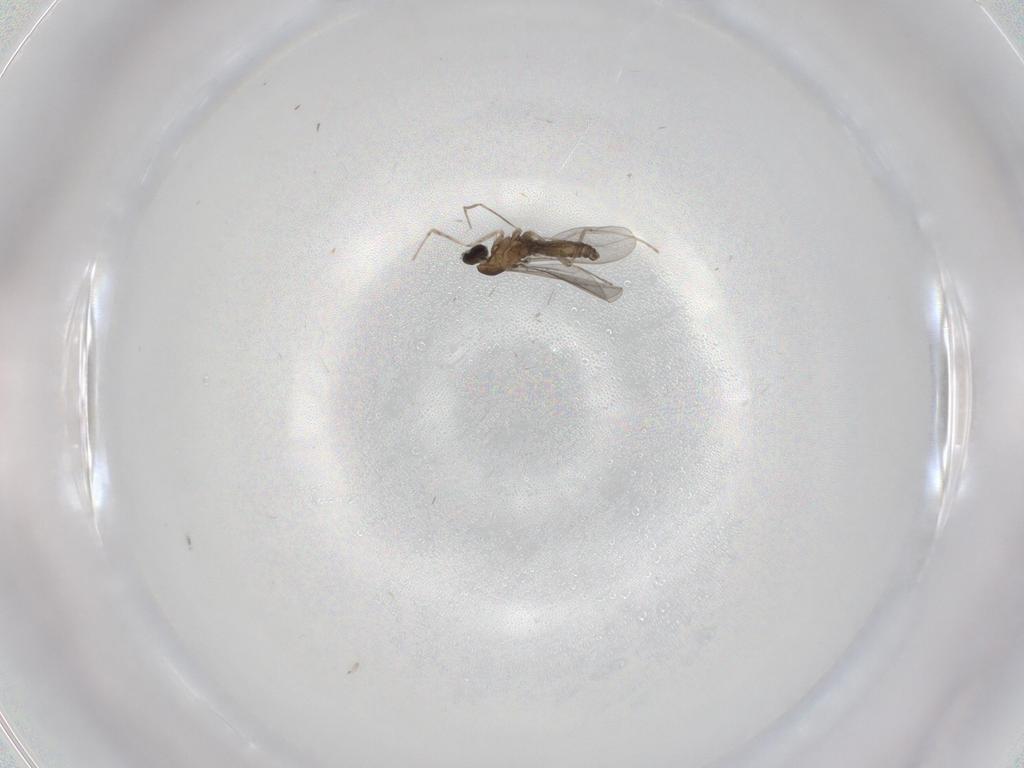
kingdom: Animalia
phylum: Arthropoda
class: Insecta
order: Diptera
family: Cecidomyiidae
